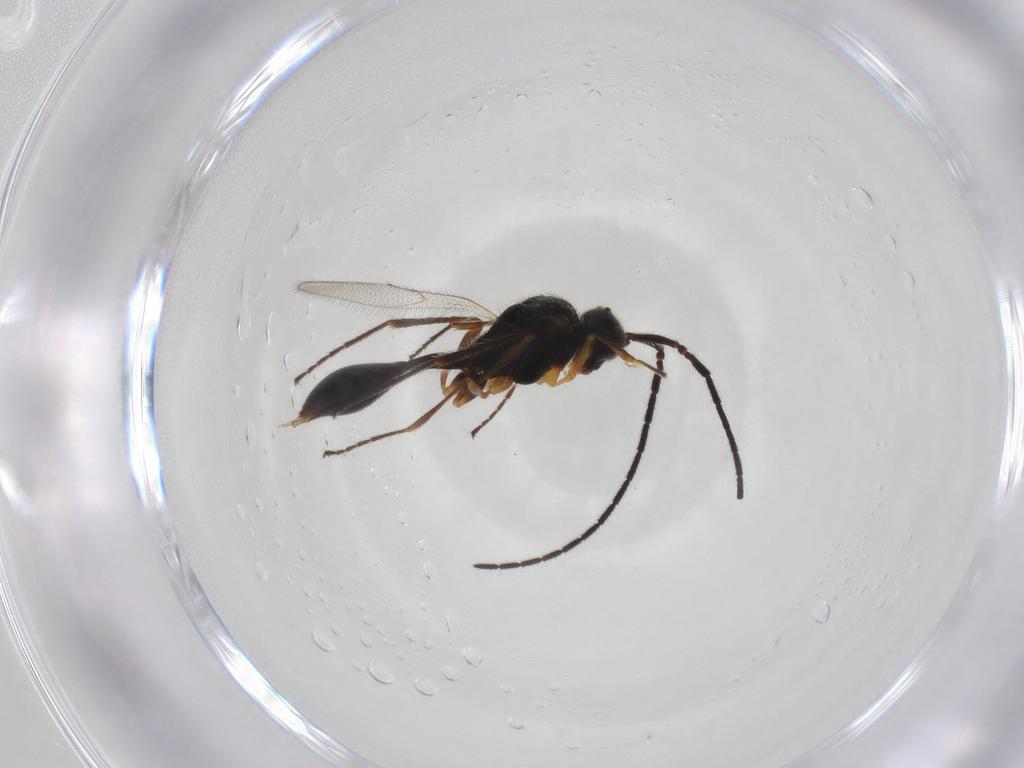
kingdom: Animalia
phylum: Arthropoda
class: Insecta
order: Hymenoptera
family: Diapriidae
